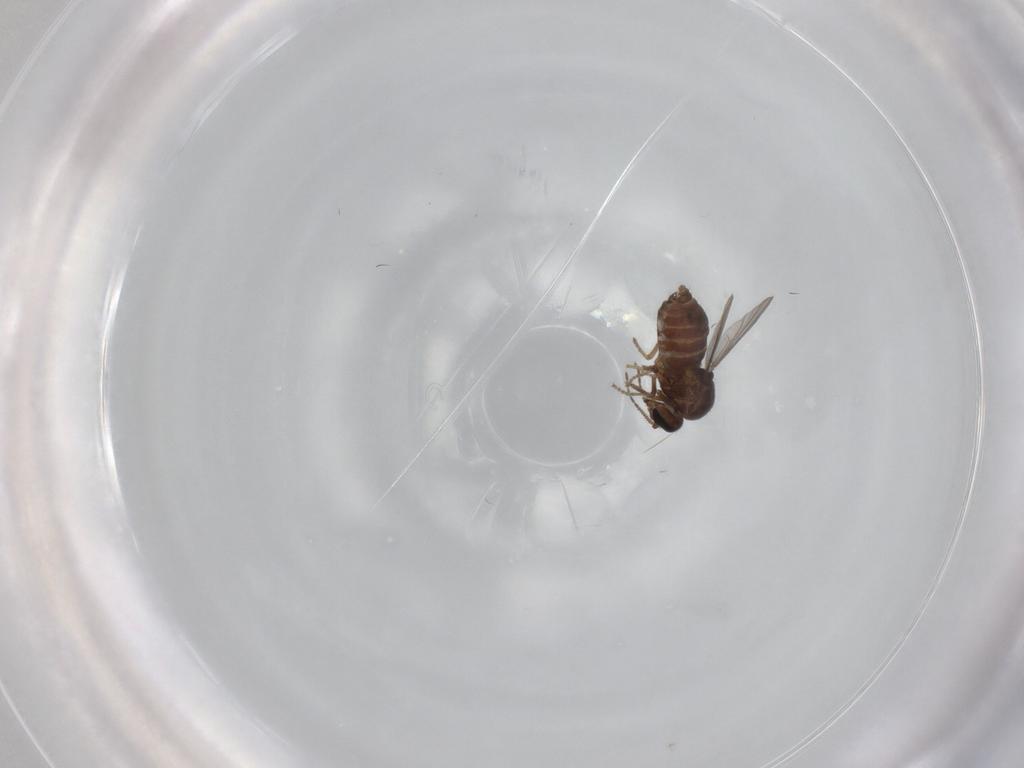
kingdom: Animalia
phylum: Arthropoda
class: Insecta
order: Diptera
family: Ceratopogonidae
